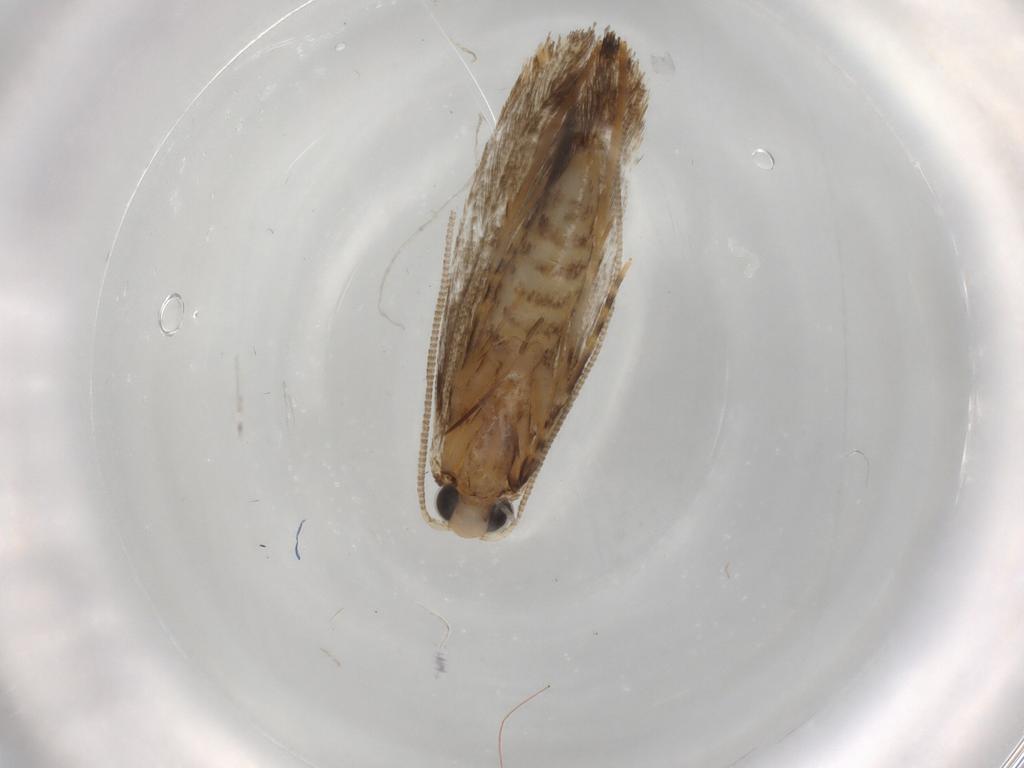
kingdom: Animalia
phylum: Arthropoda
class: Insecta
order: Lepidoptera
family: Tineidae
